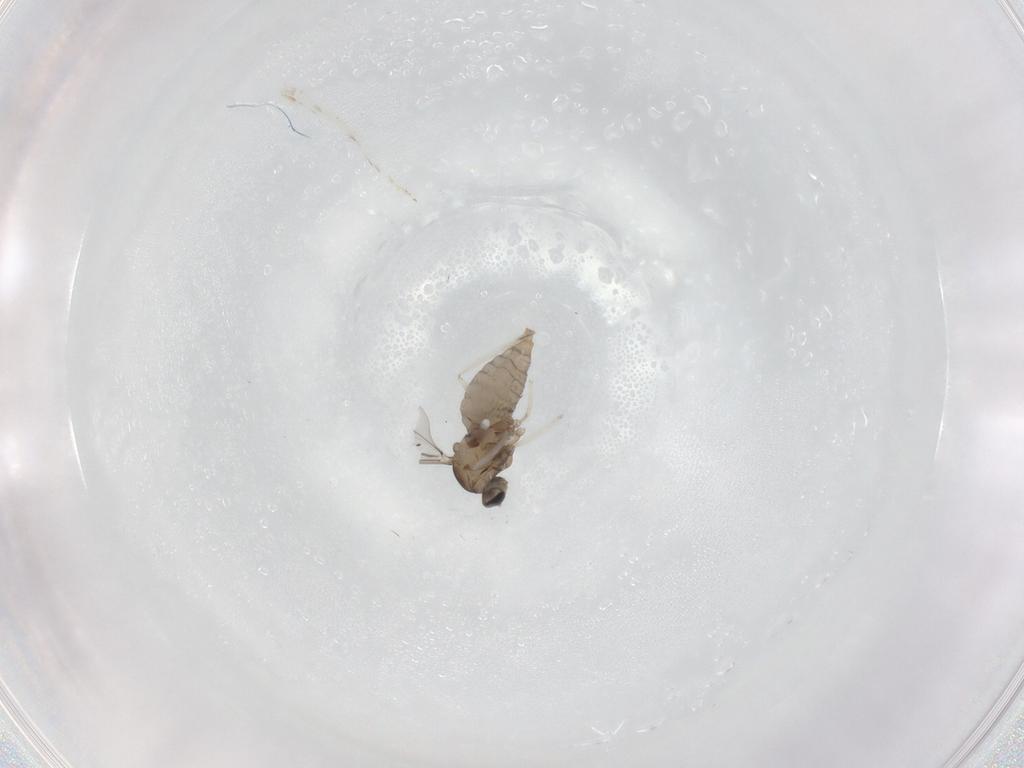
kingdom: Animalia
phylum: Arthropoda
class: Insecta
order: Diptera
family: Cecidomyiidae
